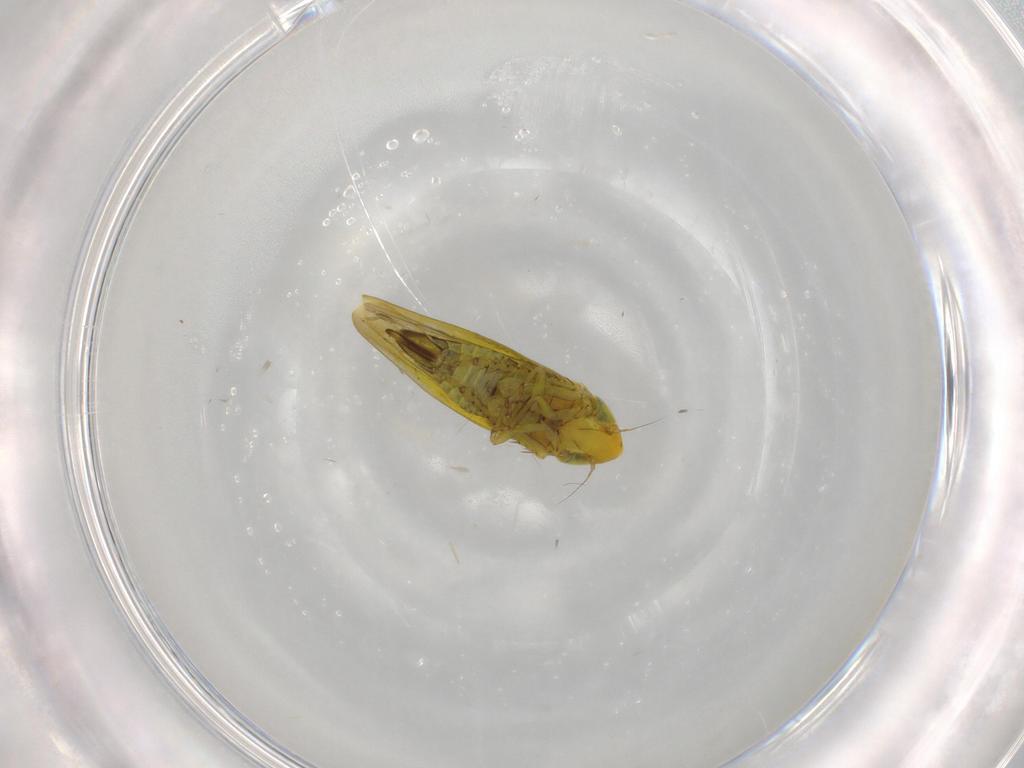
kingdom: Animalia
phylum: Arthropoda
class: Insecta
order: Hemiptera
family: Cicadellidae
